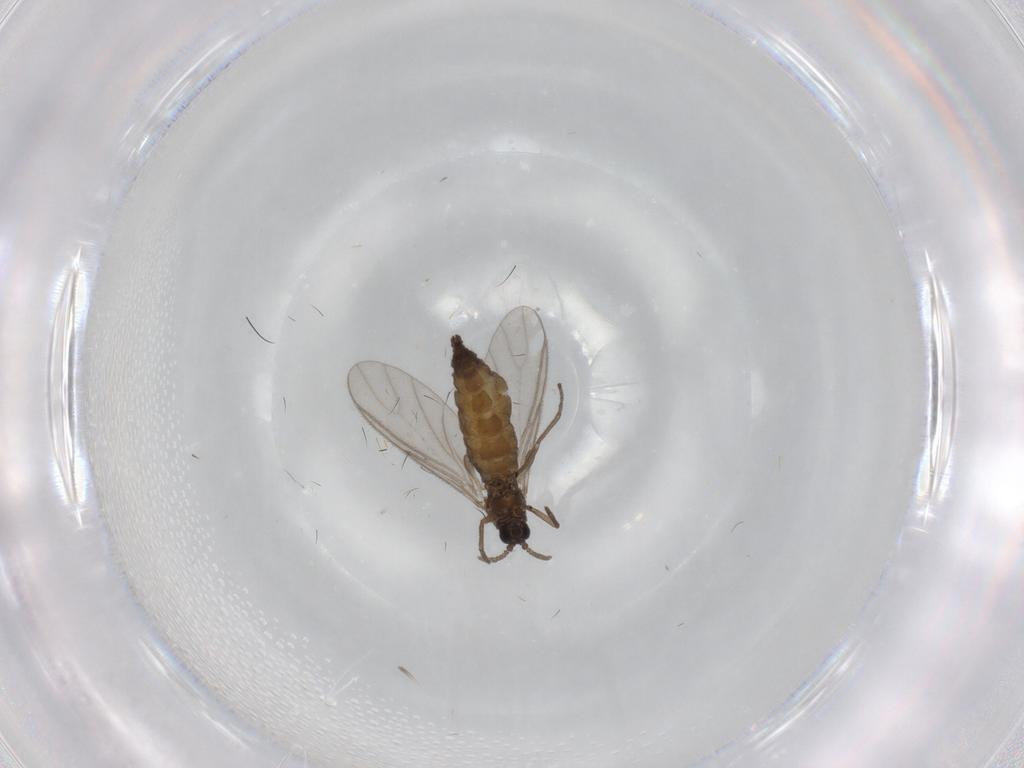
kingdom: Animalia
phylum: Arthropoda
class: Insecta
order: Diptera
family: Sciaridae
